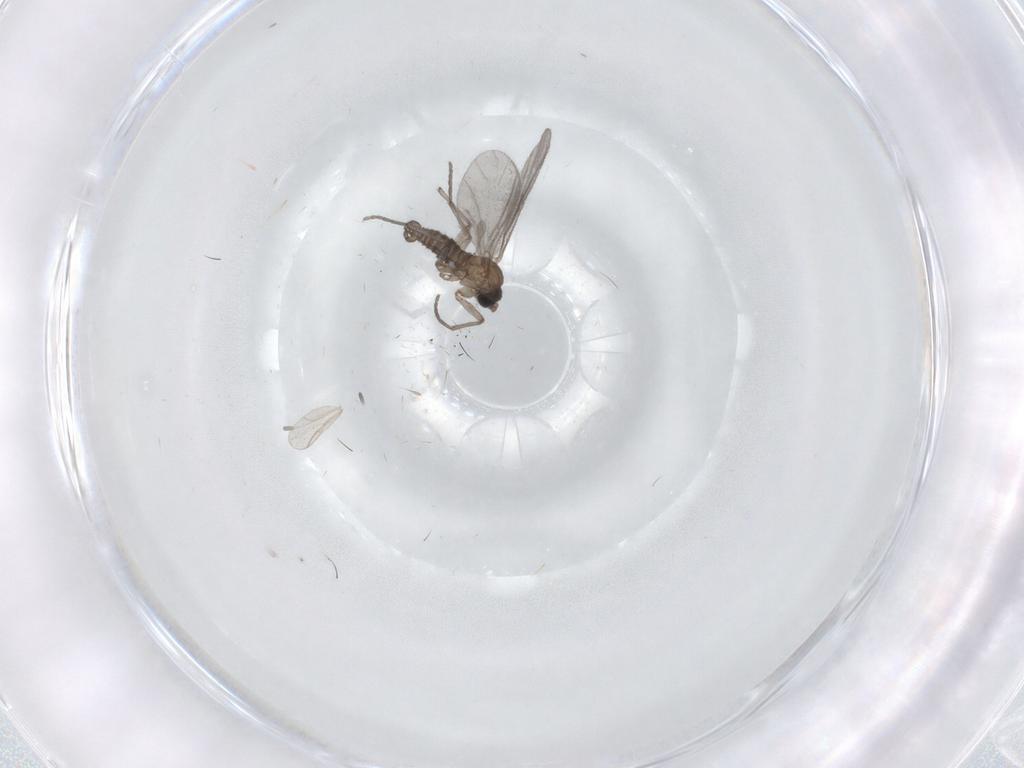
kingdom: Animalia
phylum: Arthropoda
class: Insecta
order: Diptera
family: Sciaridae
